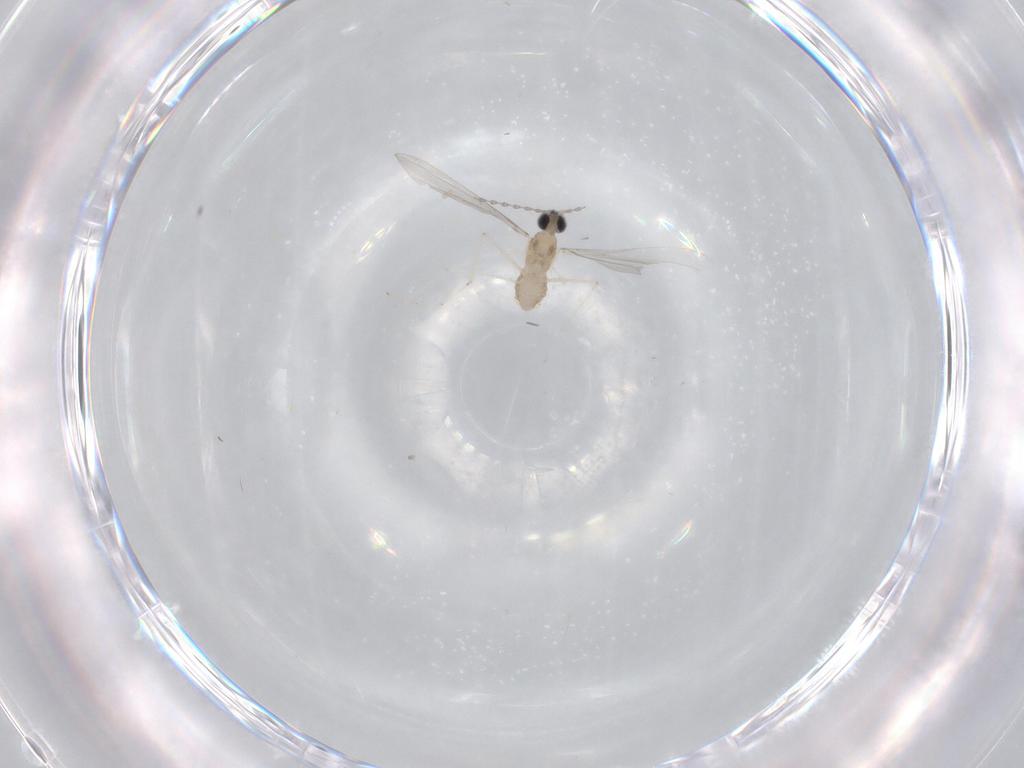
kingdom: Animalia
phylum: Arthropoda
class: Insecta
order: Diptera
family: Cecidomyiidae
